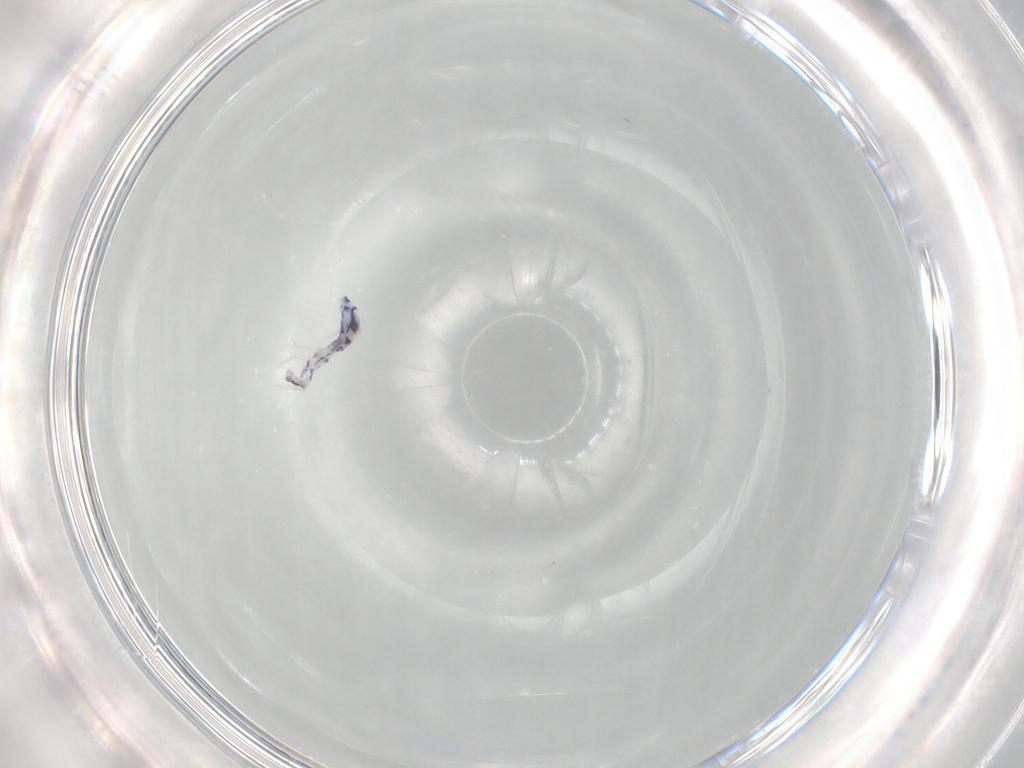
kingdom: Animalia
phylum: Arthropoda
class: Collembola
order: Entomobryomorpha
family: Entomobryidae
